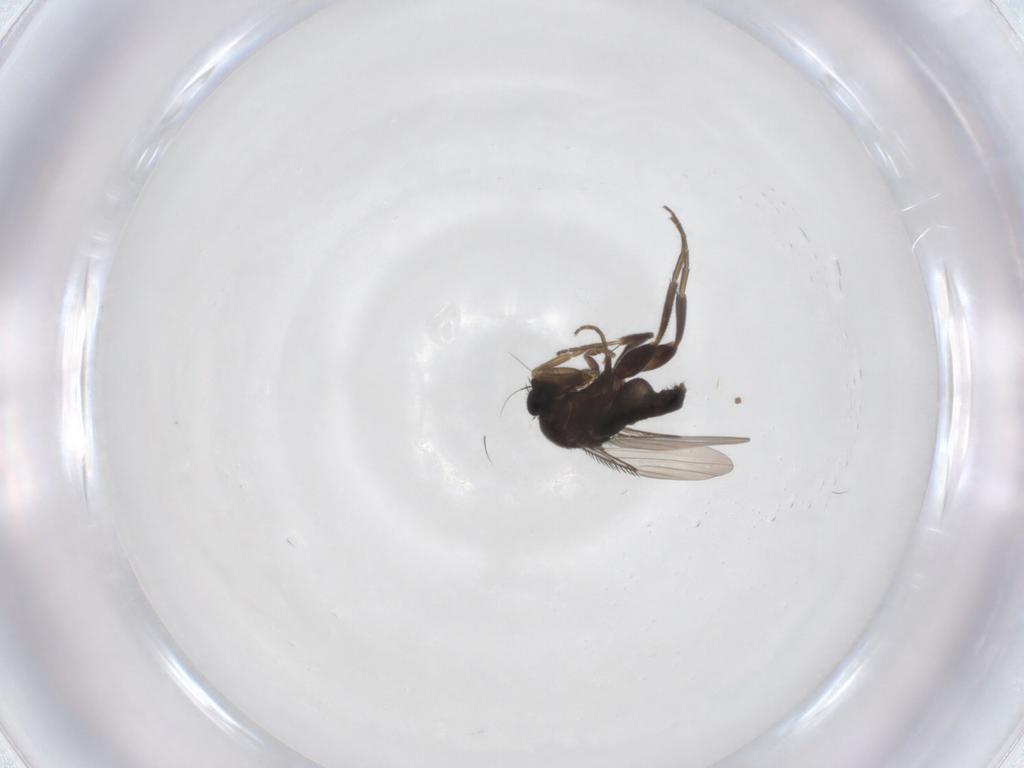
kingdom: Animalia
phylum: Arthropoda
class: Insecta
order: Diptera
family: Phoridae
